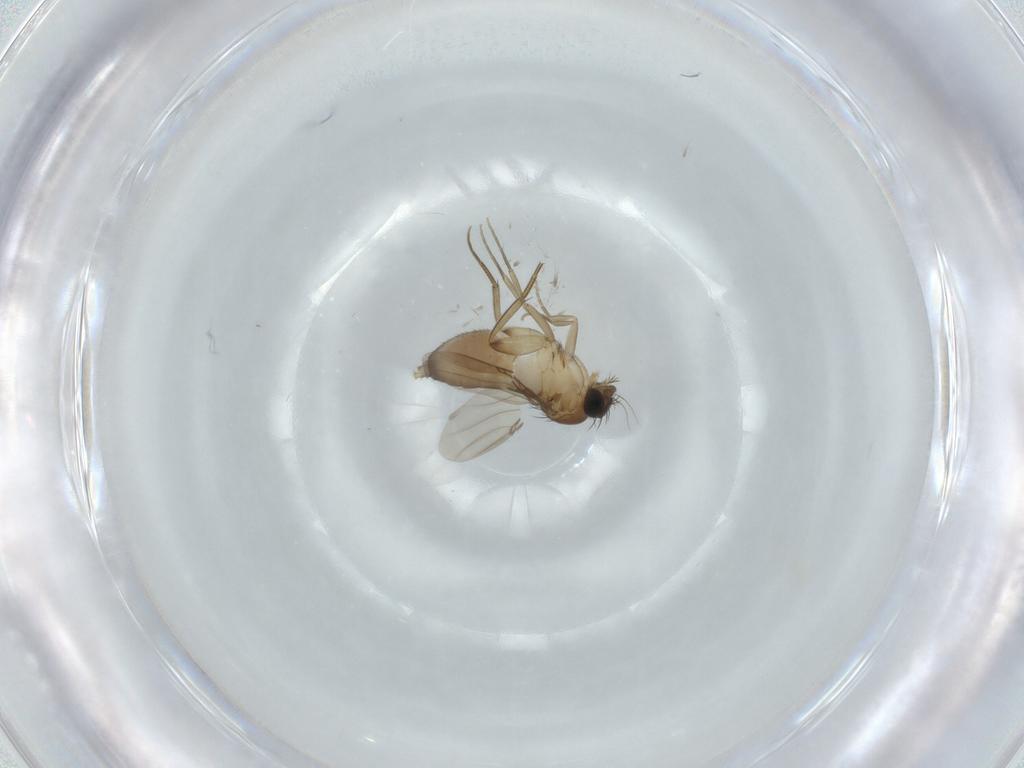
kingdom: Animalia
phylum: Arthropoda
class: Insecta
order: Diptera
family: Phoridae
